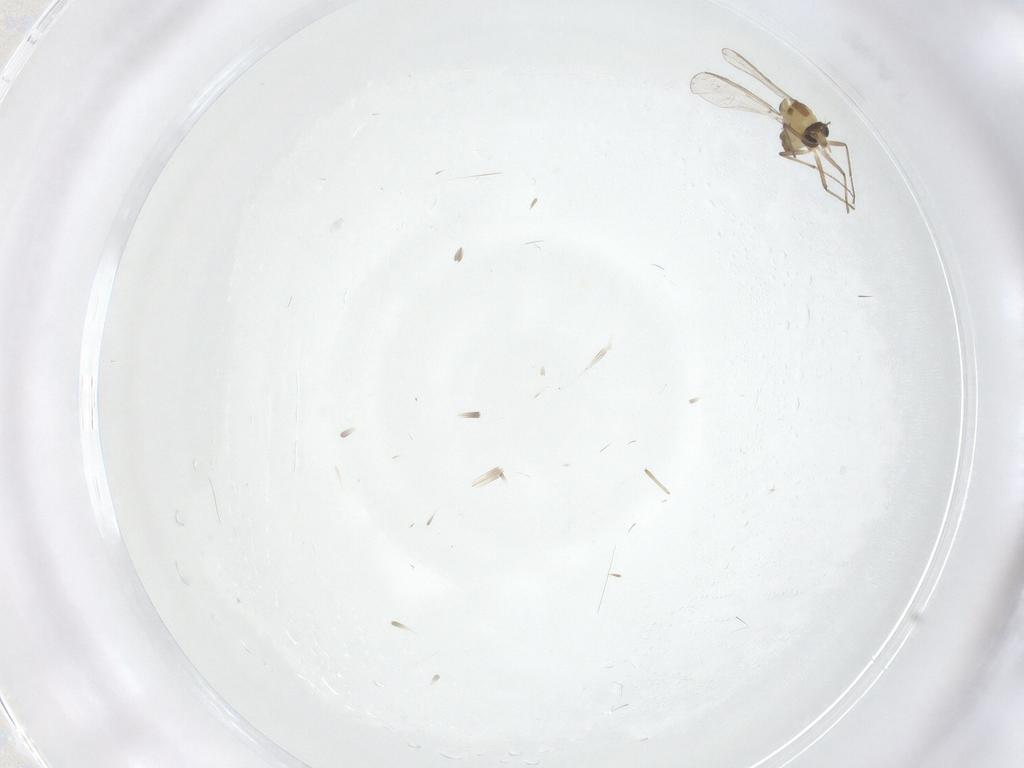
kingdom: Animalia
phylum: Arthropoda
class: Insecta
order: Diptera
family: Chironomidae
